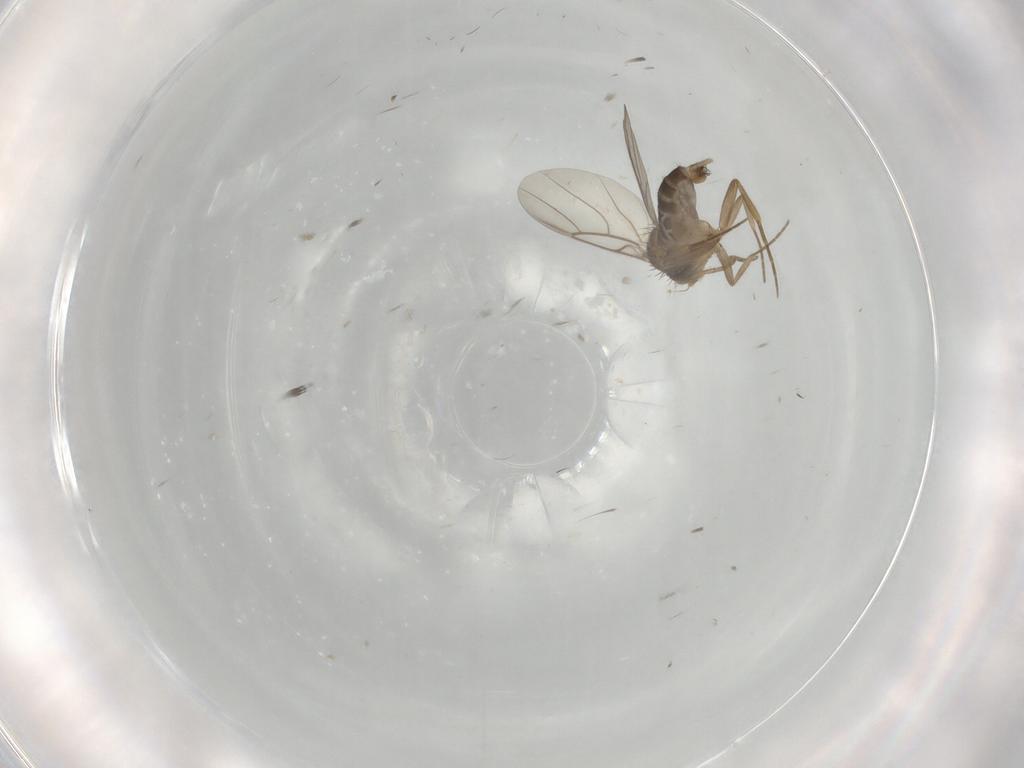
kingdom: Animalia
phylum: Arthropoda
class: Insecta
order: Diptera
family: Phoridae
